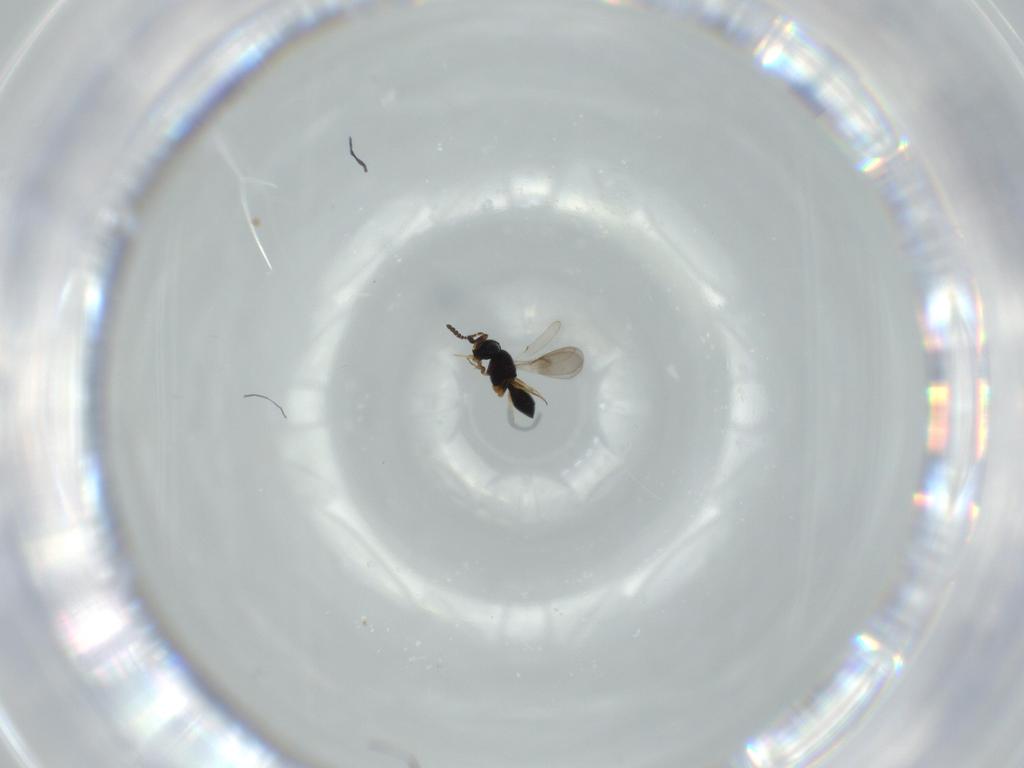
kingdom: Animalia
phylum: Arthropoda
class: Insecta
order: Hymenoptera
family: Scelionidae
